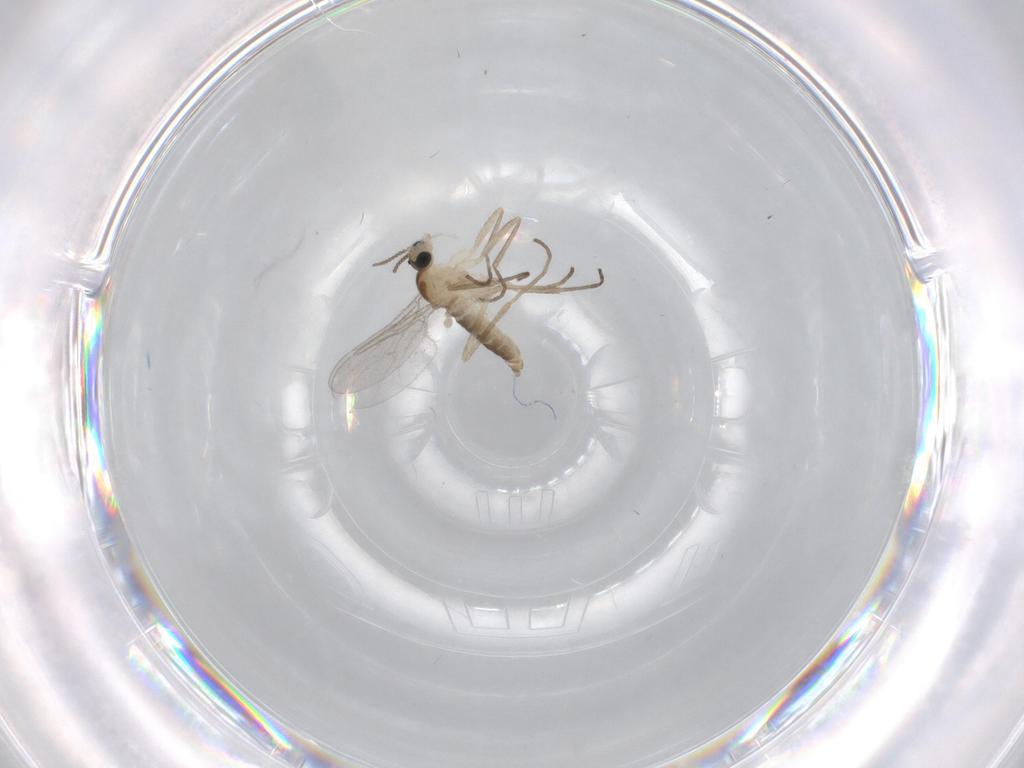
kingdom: Animalia
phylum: Arthropoda
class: Insecta
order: Diptera
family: Cecidomyiidae
